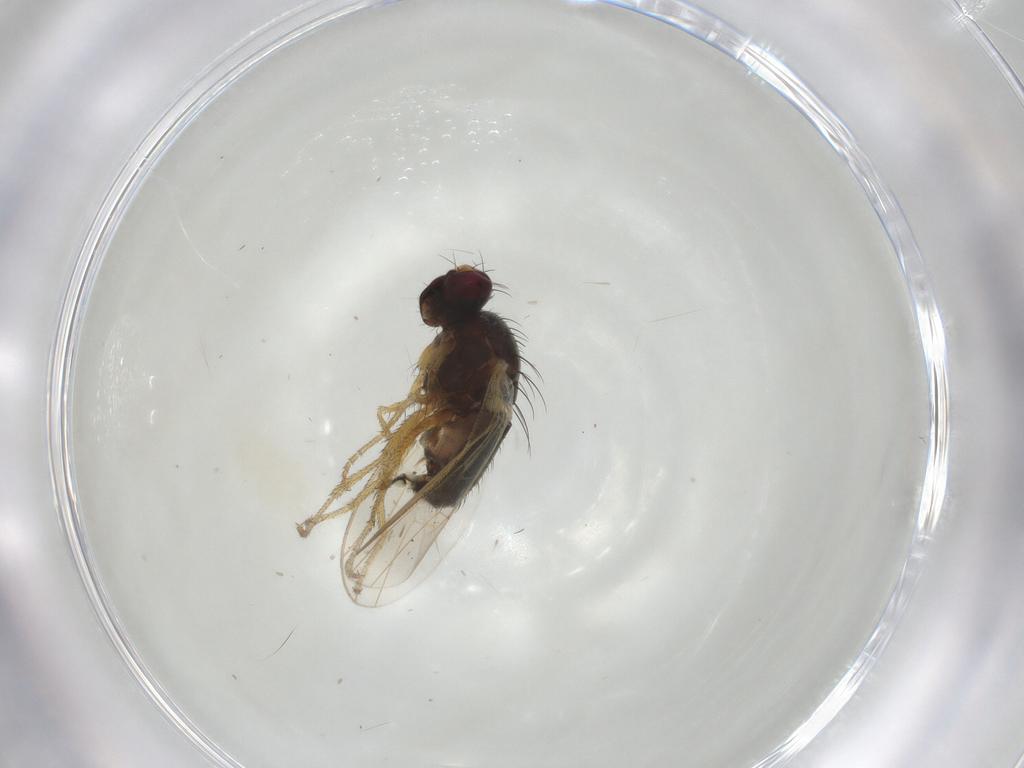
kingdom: Animalia
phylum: Arthropoda
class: Insecta
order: Diptera
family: Heleomyzidae
